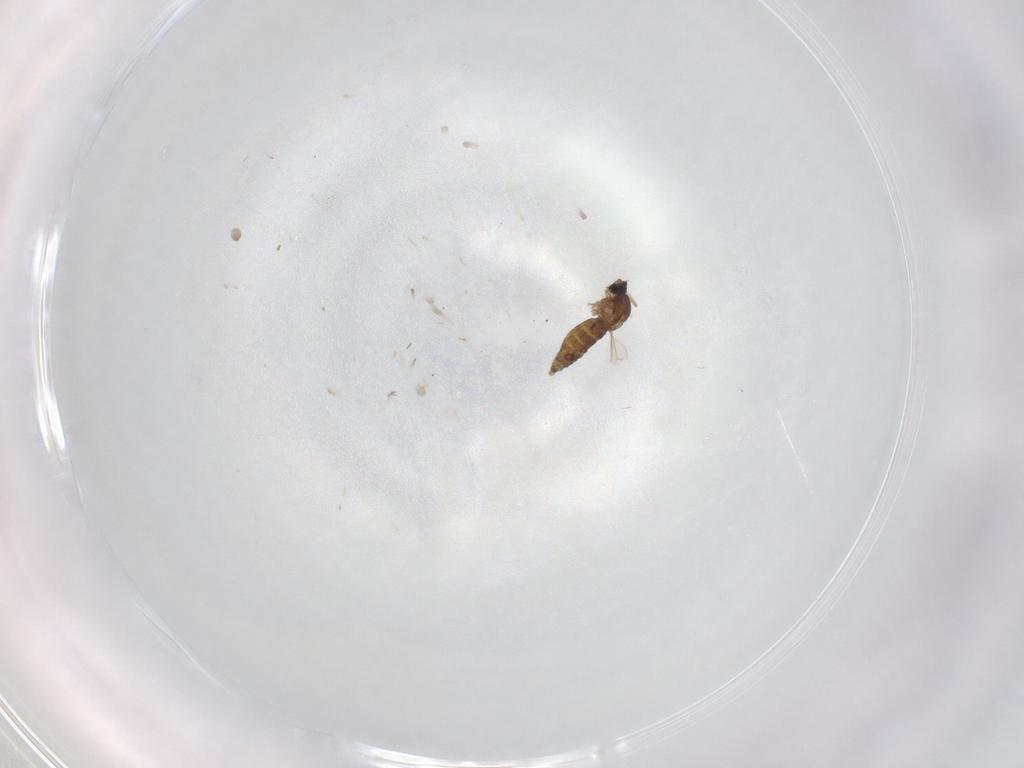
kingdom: Animalia
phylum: Arthropoda
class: Insecta
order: Diptera
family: Cecidomyiidae
